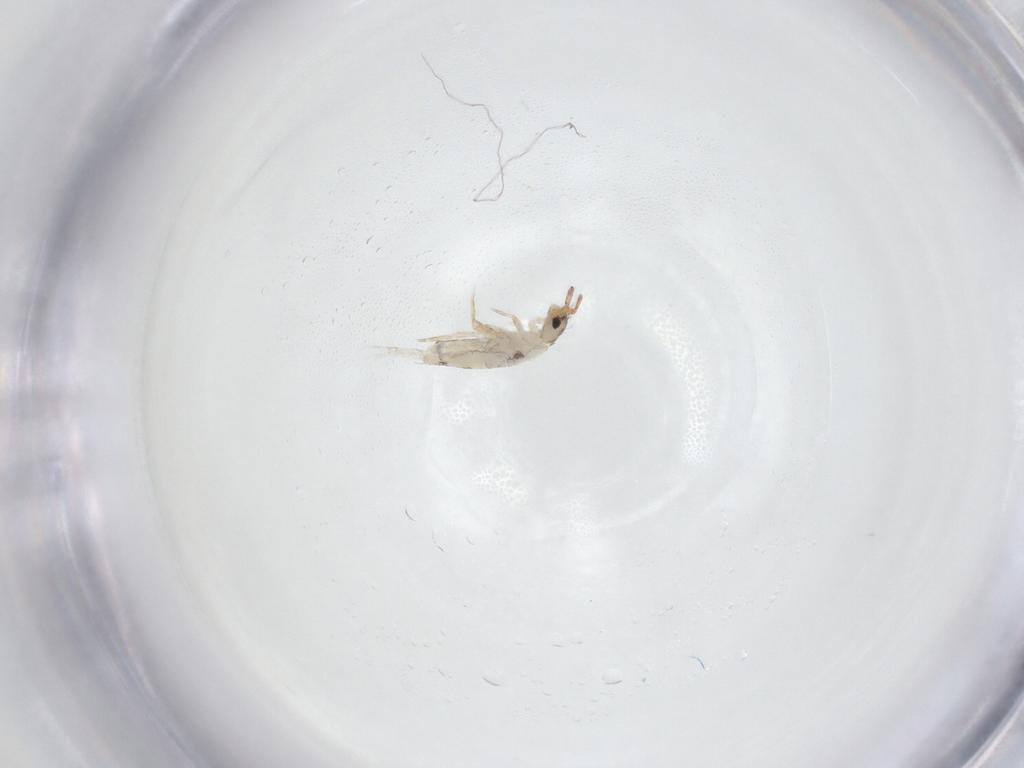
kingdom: Animalia
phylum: Arthropoda
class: Collembola
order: Entomobryomorpha
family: Entomobryidae
